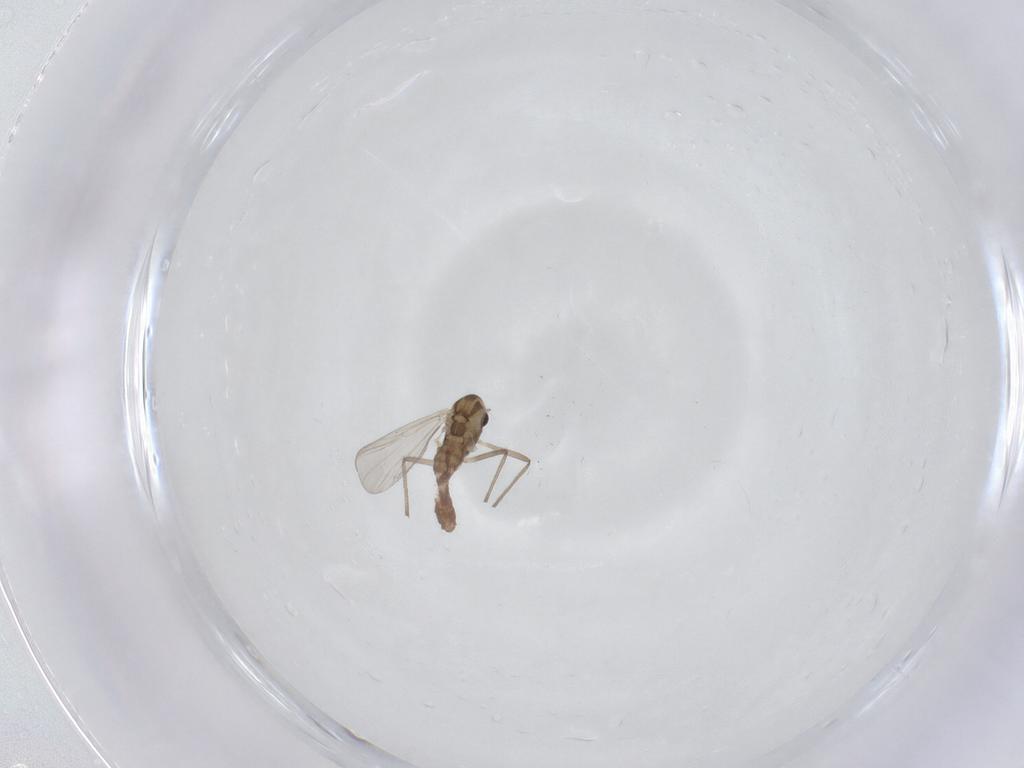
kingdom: Animalia
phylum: Arthropoda
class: Insecta
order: Diptera
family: Chironomidae
